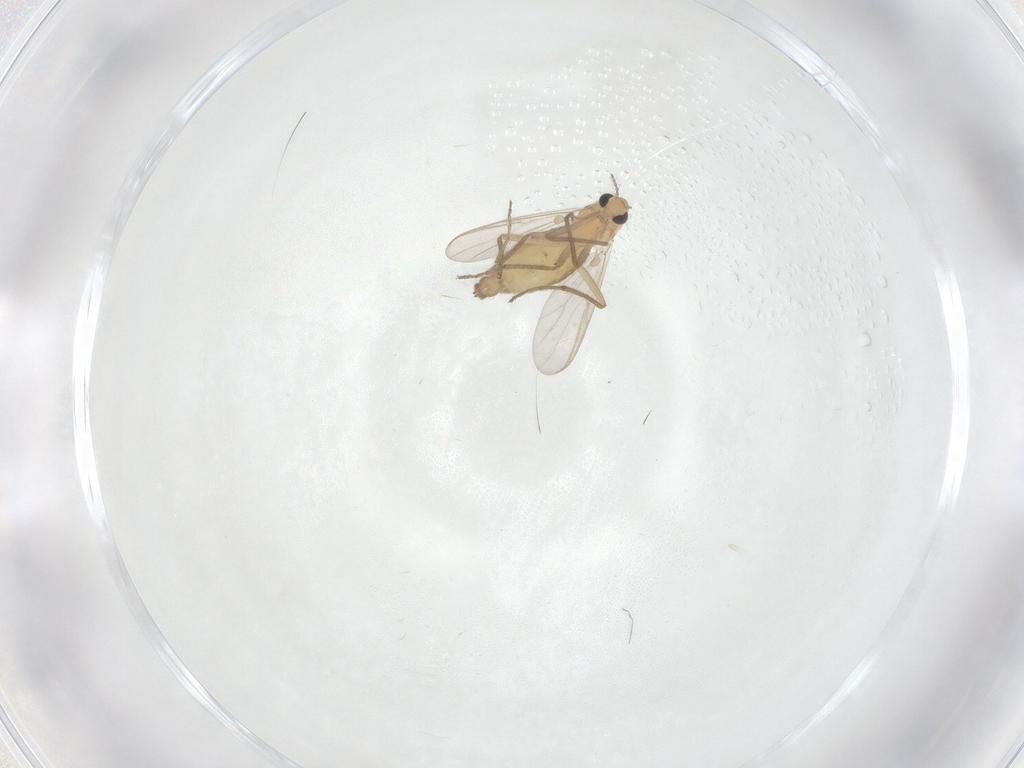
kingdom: Animalia
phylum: Arthropoda
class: Insecta
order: Diptera
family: Chironomidae
